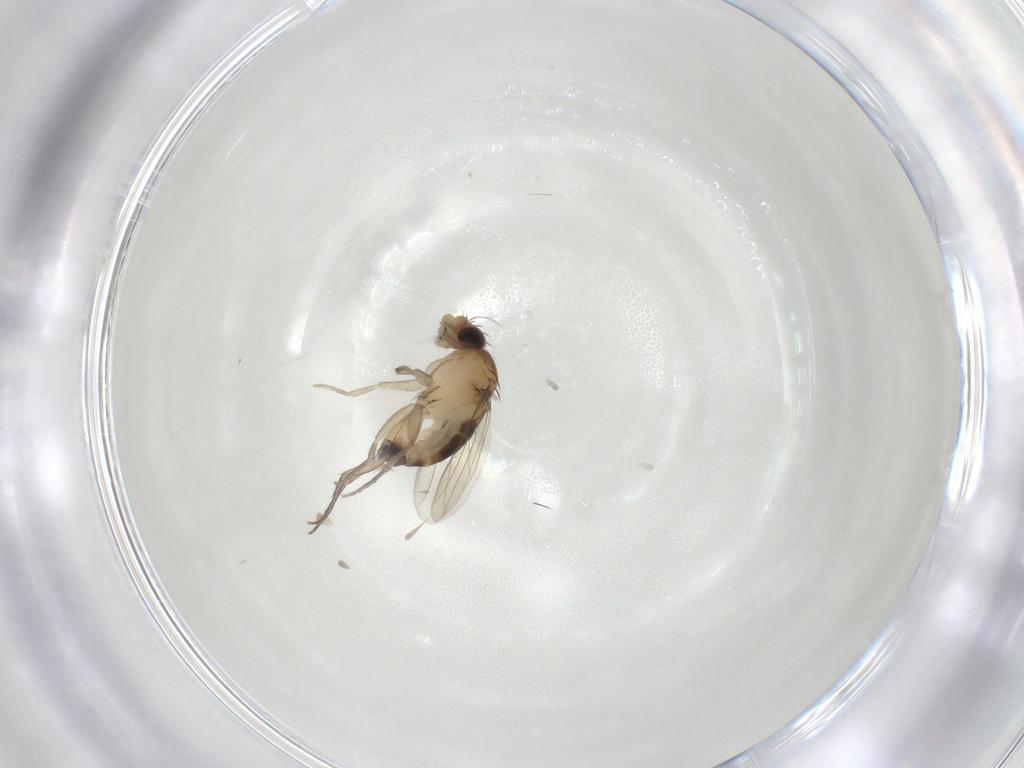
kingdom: Animalia
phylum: Arthropoda
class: Insecta
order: Diptera
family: Phoridae
